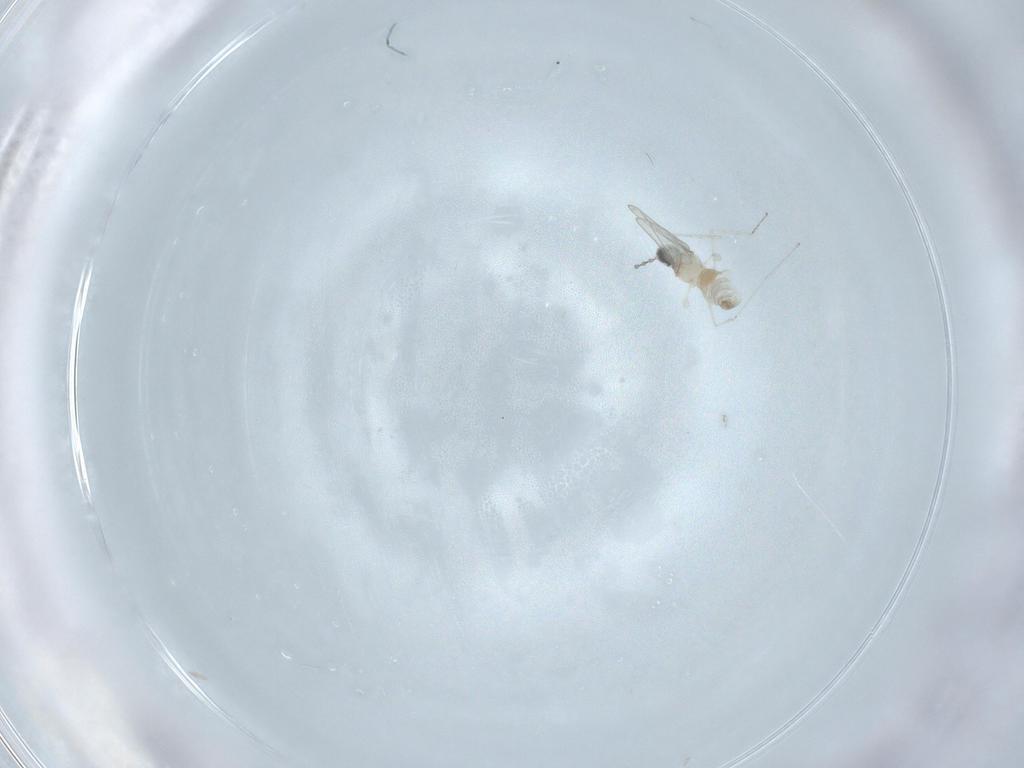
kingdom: Animalia
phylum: Arthropoda
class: Insecta
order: Diptera
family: Cecidomyiidae
